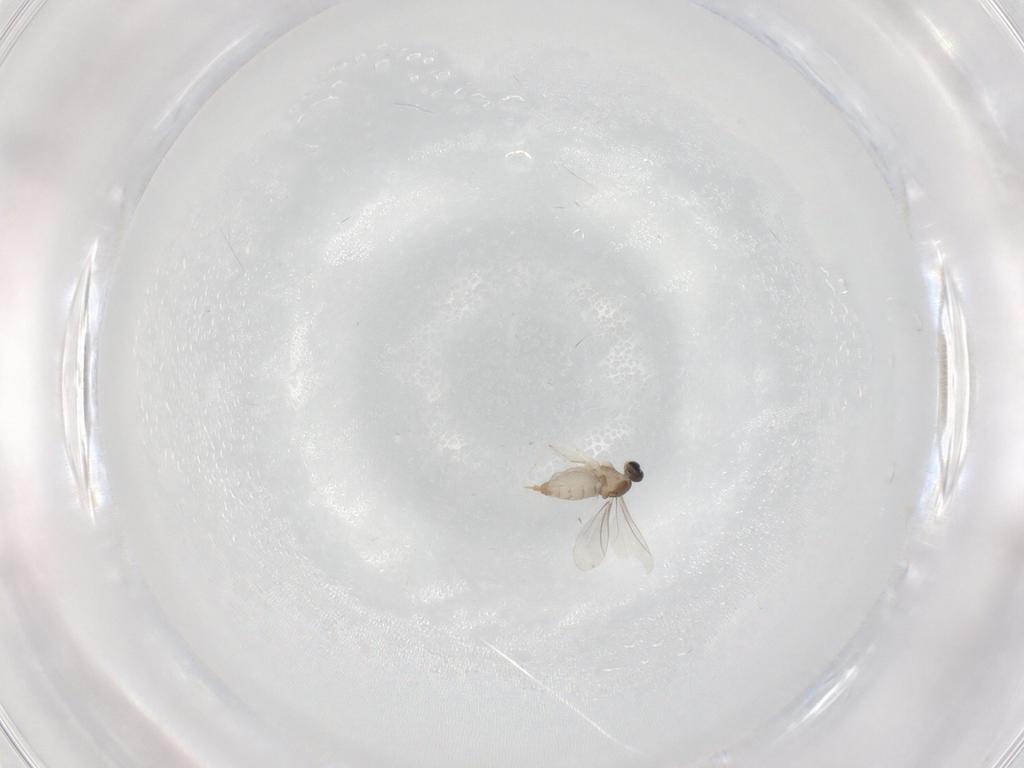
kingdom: Animalia
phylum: Arthropoda
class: Insecta
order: Diptera
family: Cecidomyiidae
